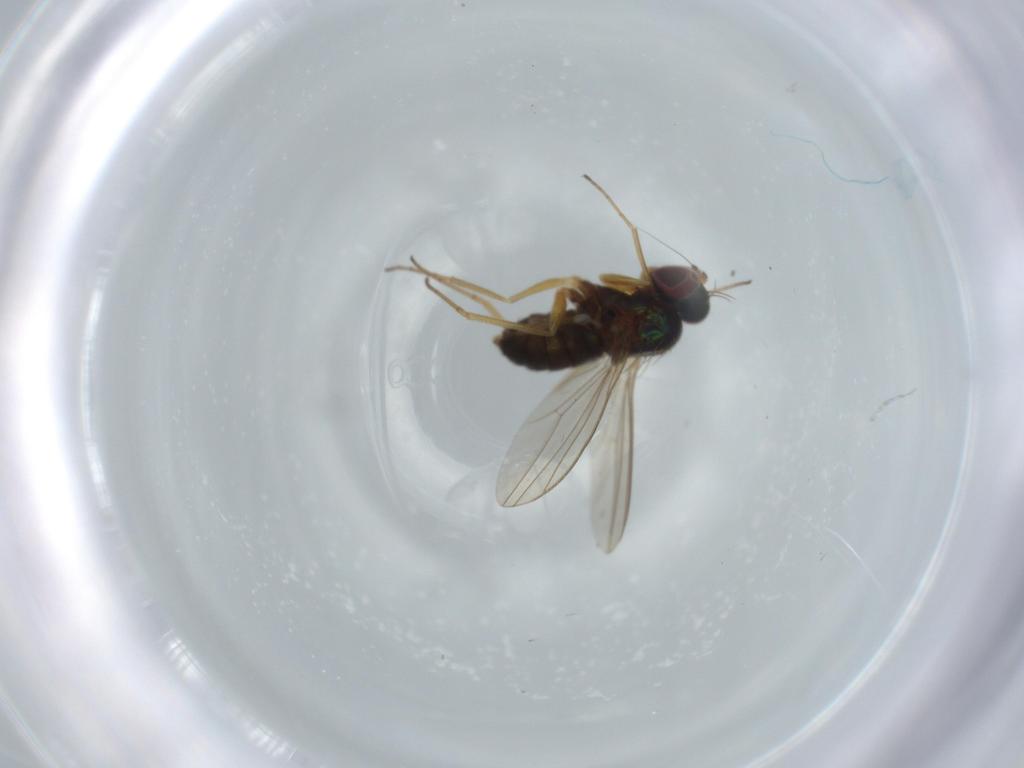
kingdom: Animalia
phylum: Arthropoda
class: Insecta
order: Diptera
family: Dolichopodidae
